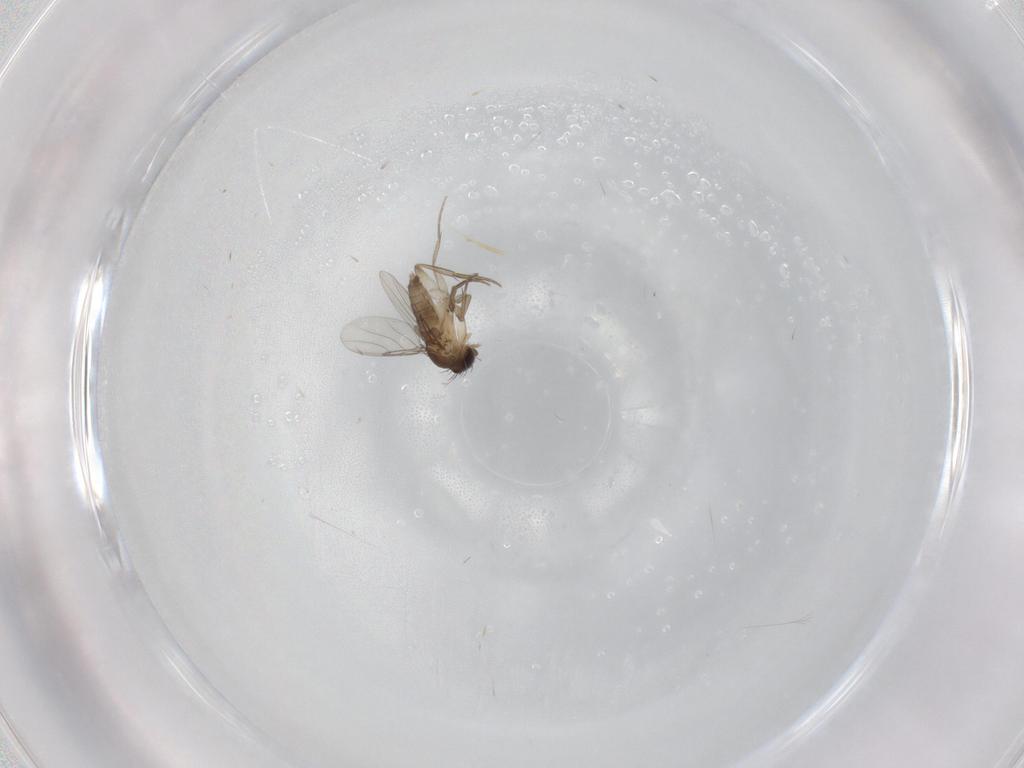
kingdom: Animalia
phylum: Arthropoda
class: Insecta
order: Diptera
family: Phoridae
